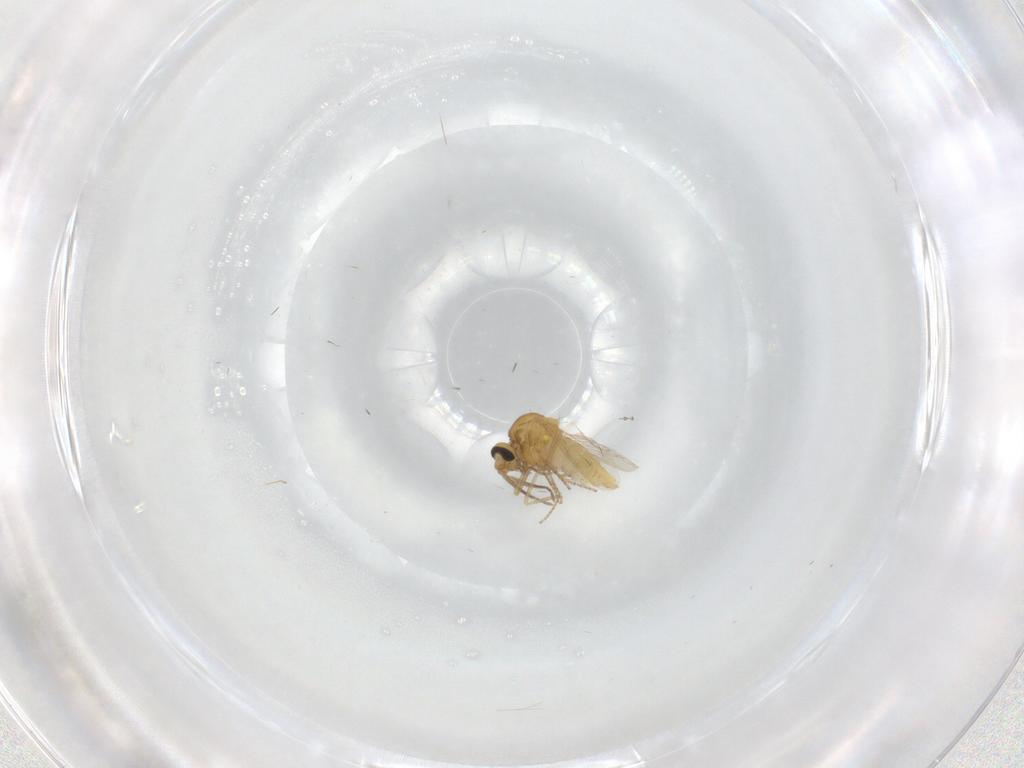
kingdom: Animalia
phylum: Arthropoda
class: Insecta
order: Diptera
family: Ceratopogonidae
